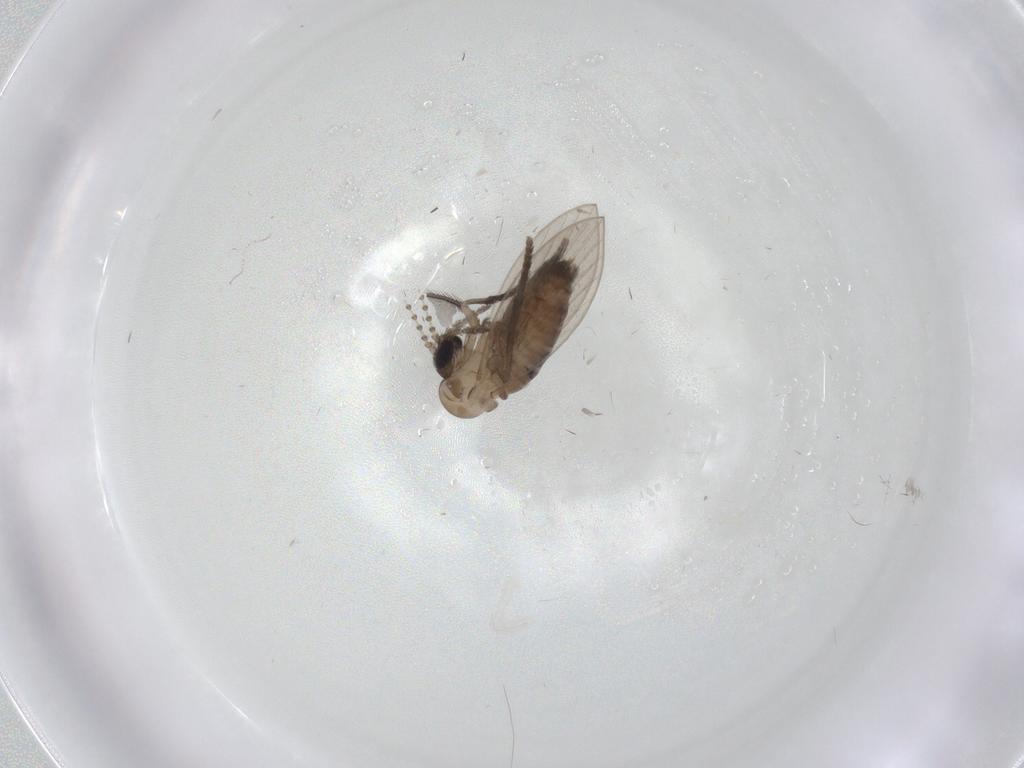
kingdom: Animalia
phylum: Arthropoda
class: Insecta
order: Diptera
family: Psychodidae
